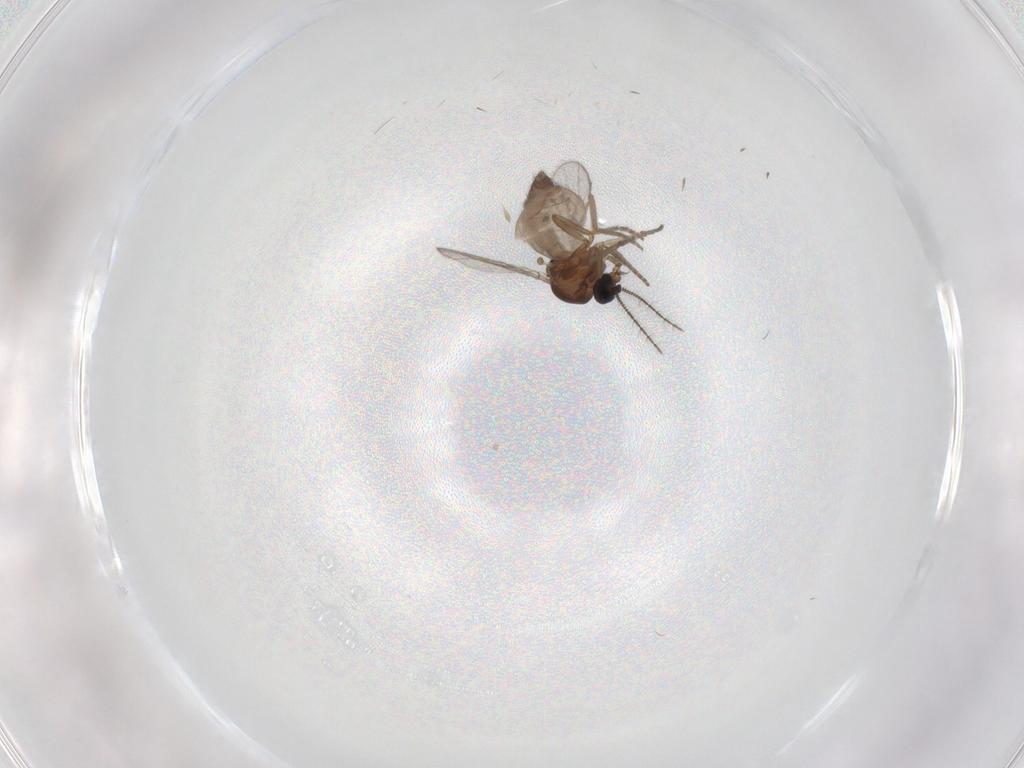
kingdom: Animalia
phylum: Arthropoda
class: Insecta
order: Diptera
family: Ceratopogonidae
